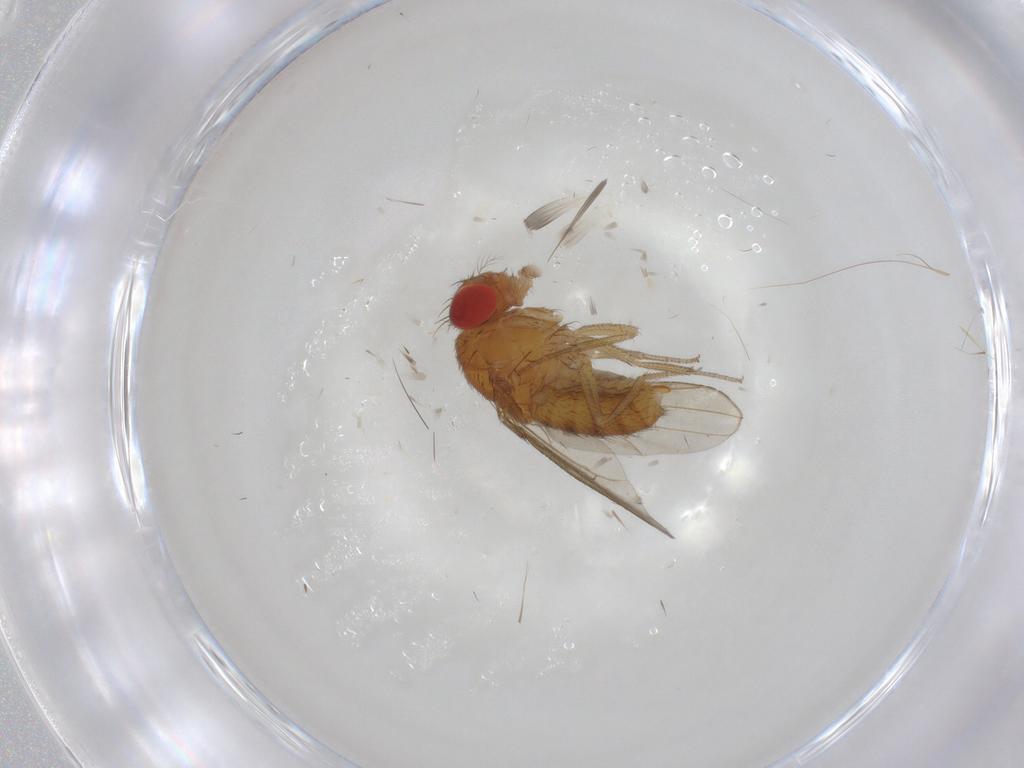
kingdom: Animalia
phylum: Arthropoda
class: Insecta
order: Diptera
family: Drosophilidae
